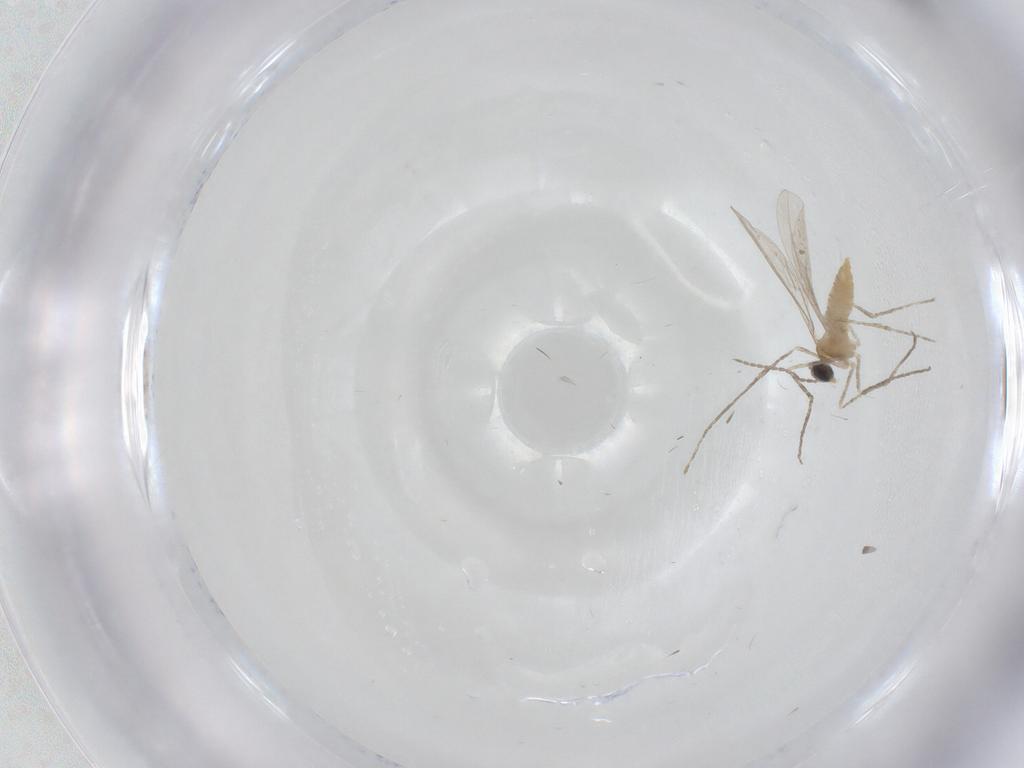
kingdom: Animalia
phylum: Arthropoda
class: Insecta
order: Diptera
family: Cecidomyiidae
